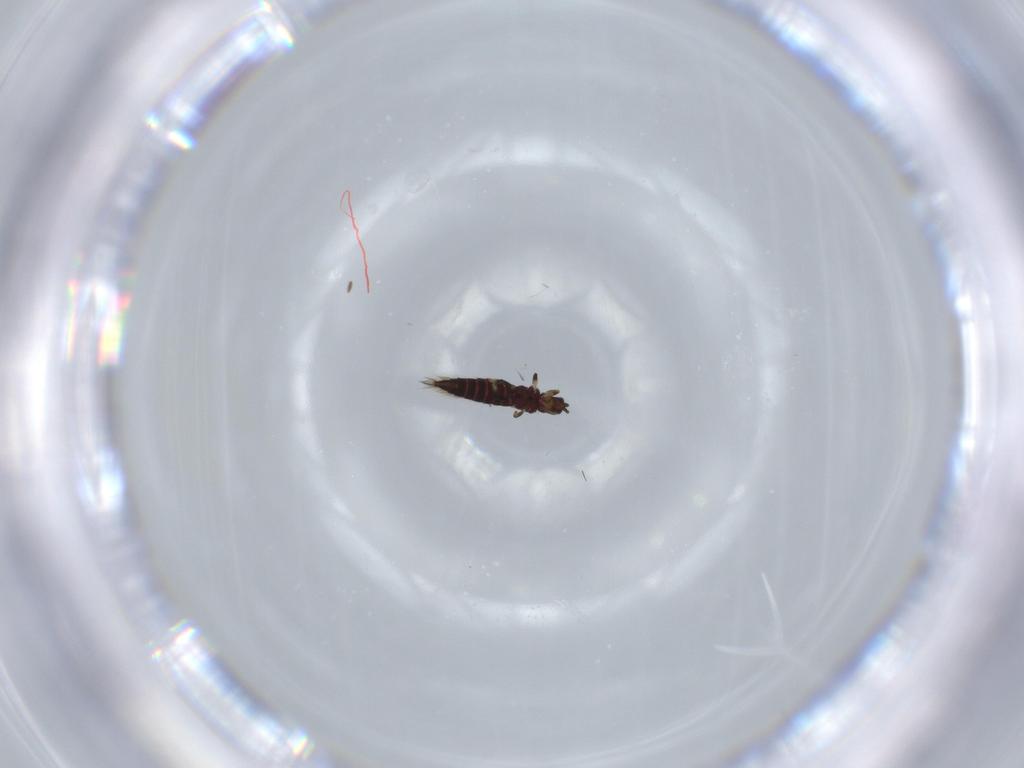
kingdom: Animalia
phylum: Arthropoda
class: Insecta
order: Thysanoptera
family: Thripidae
